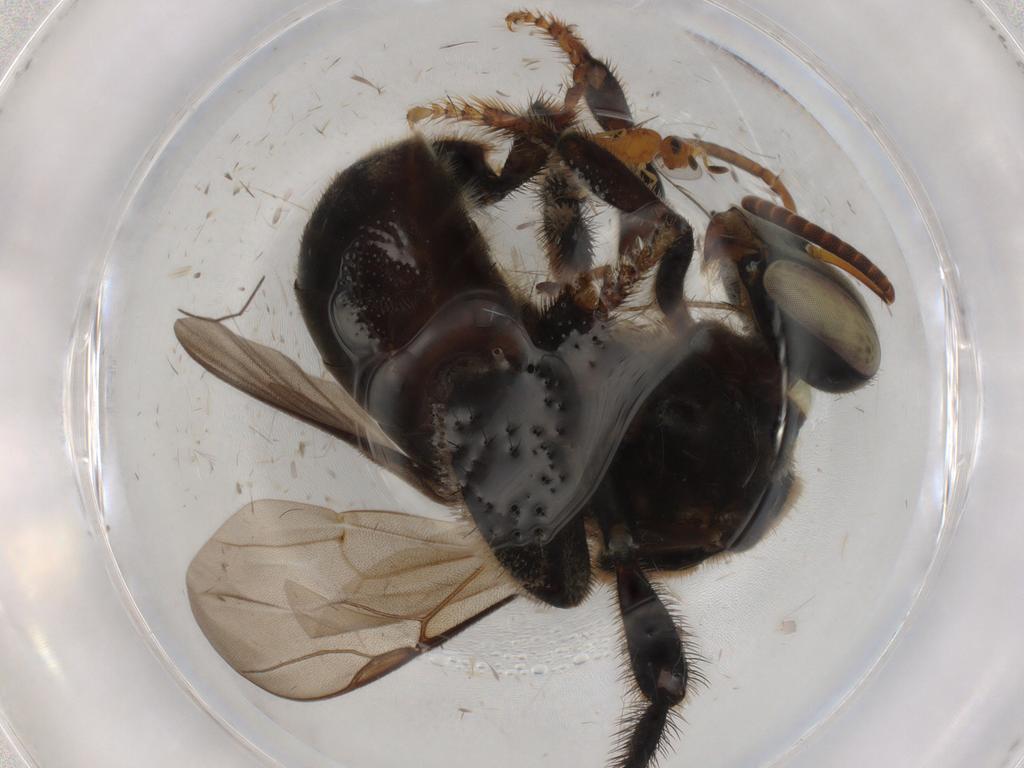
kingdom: Animalia
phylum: Arthropoda
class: Insecta
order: Hymenoptera
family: Apidae
